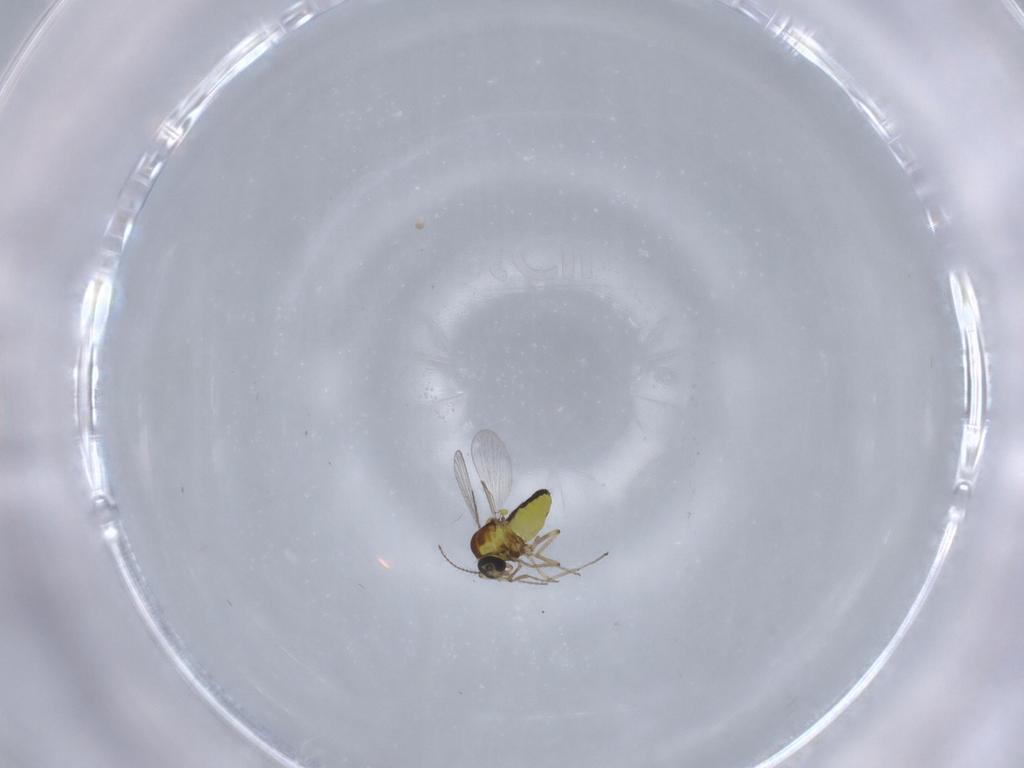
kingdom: Animalia
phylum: Arthropoda
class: Insecta
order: Diptera
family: Ceratopogonidae
